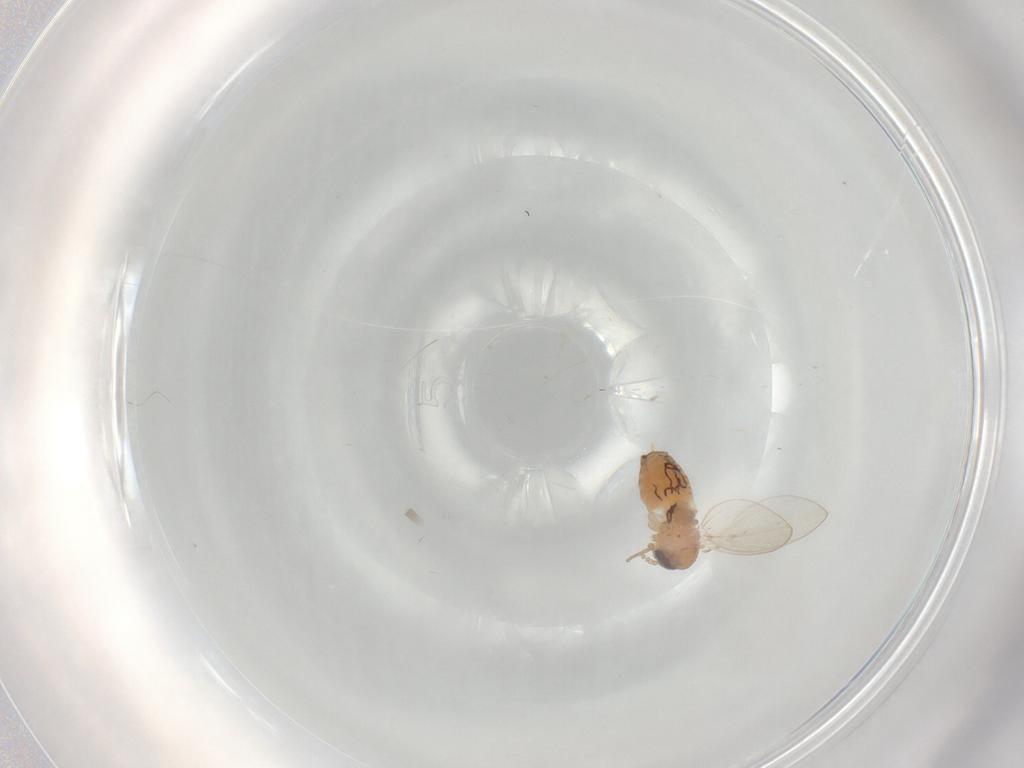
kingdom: Animalia
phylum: Arthropoda
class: Insecta
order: Diptera
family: Psychodidae
